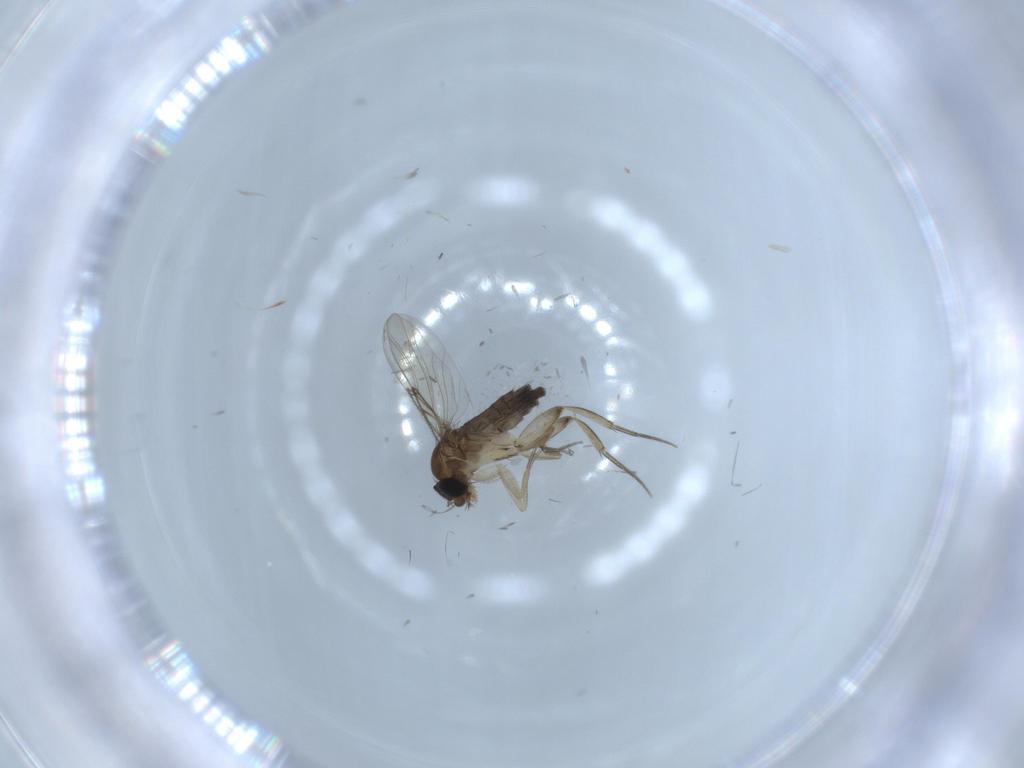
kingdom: Animalia
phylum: Arthropoda
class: Insecta
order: Diptera
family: Phoridae
